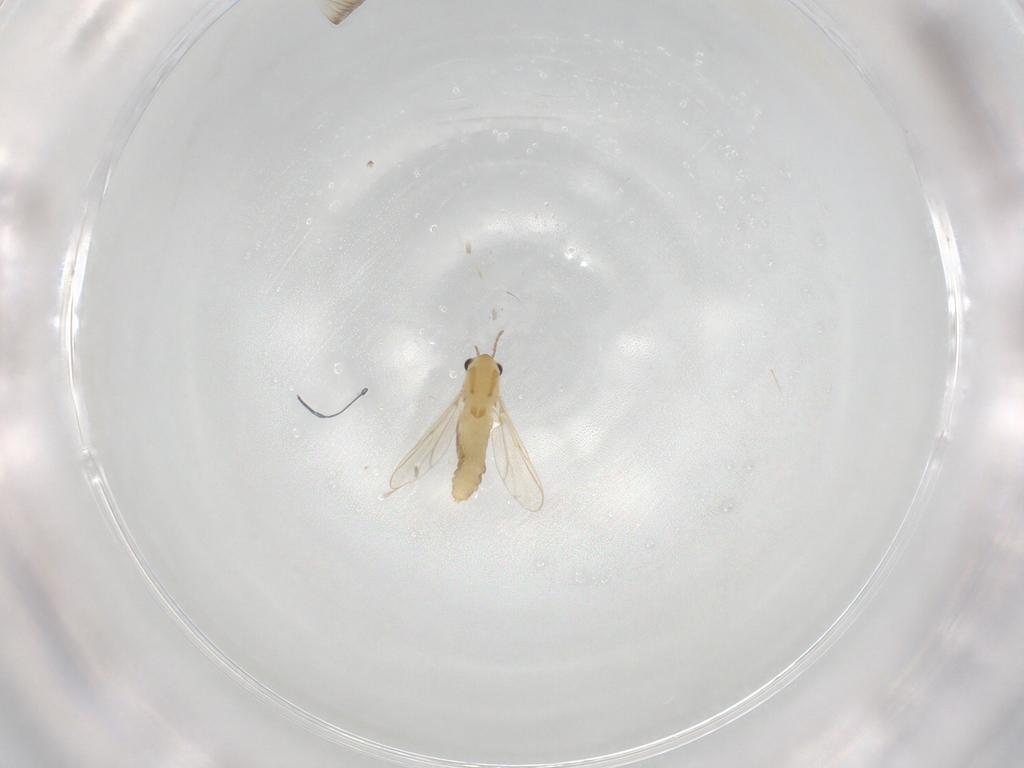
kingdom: Animalia
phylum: Arthropoda
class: Insecta
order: Diptera
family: Chironomidae
